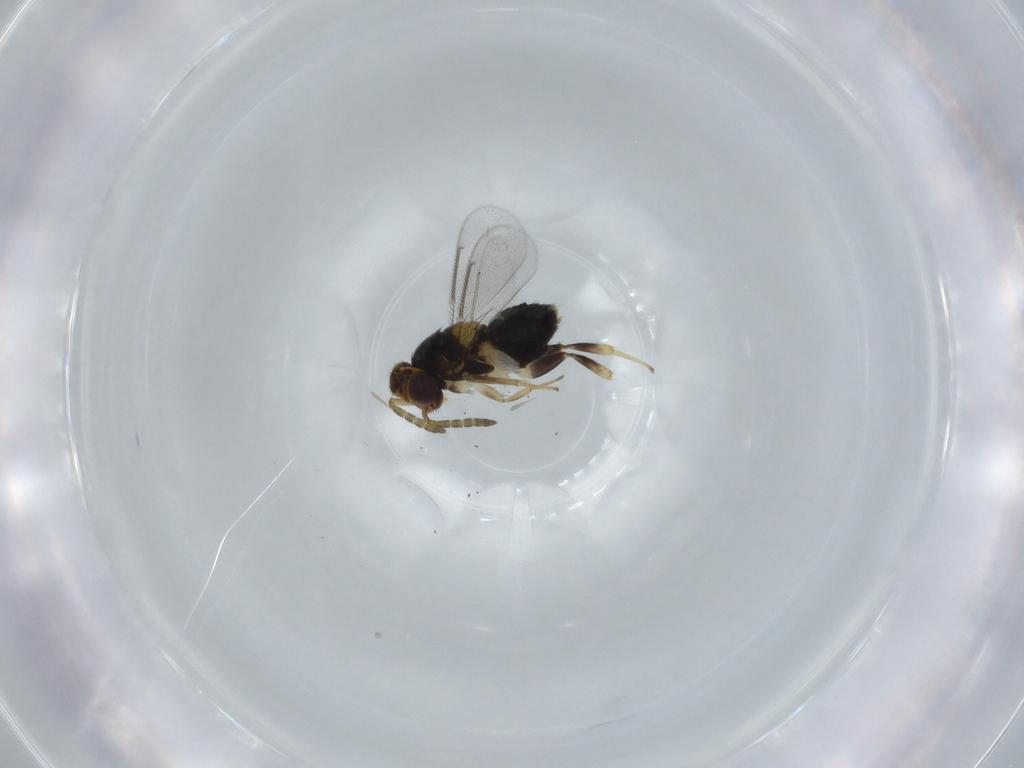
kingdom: Animalia
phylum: Arthropoda
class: Insecta
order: Hymenoptera
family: Aphelinidae
